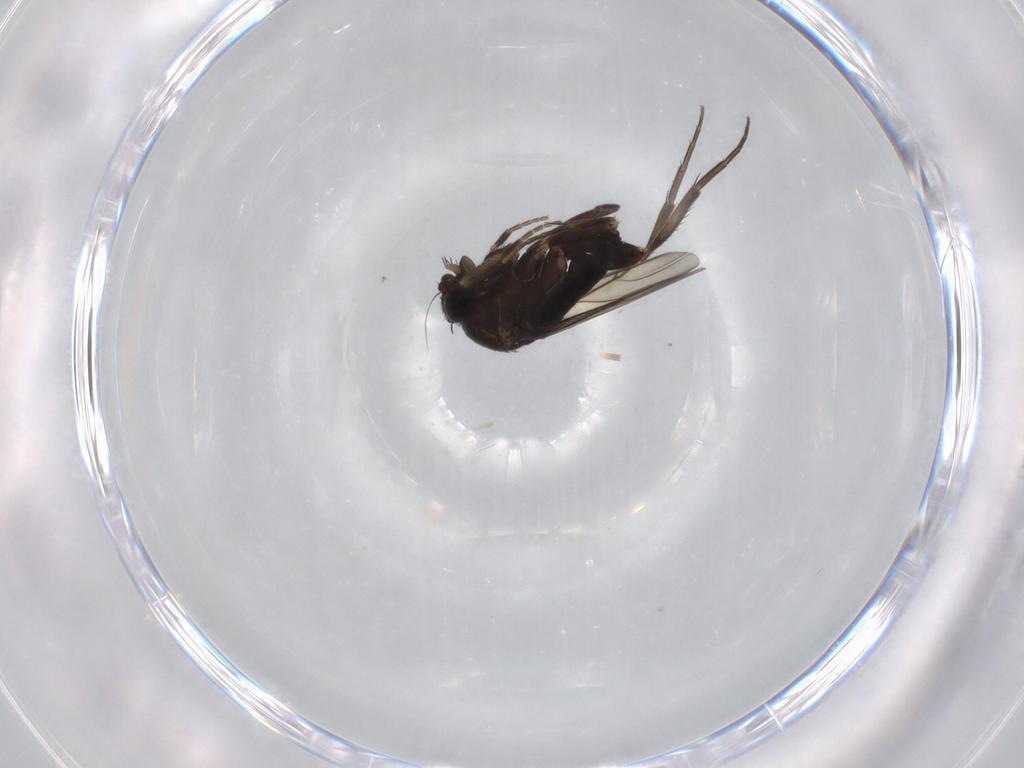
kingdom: Animalia
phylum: Arthropoda
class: Insecta
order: Diptera
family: Phoridae
